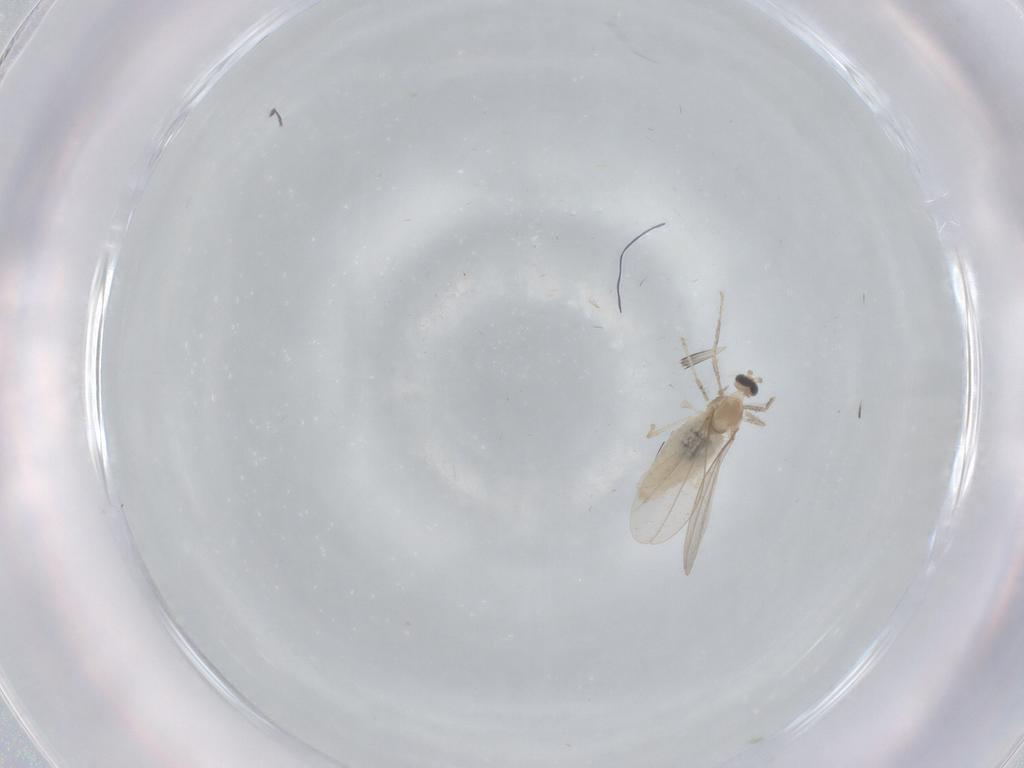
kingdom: Animalia
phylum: Arthropoda
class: Insecta
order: Diptera
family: Cecidomyiidae
